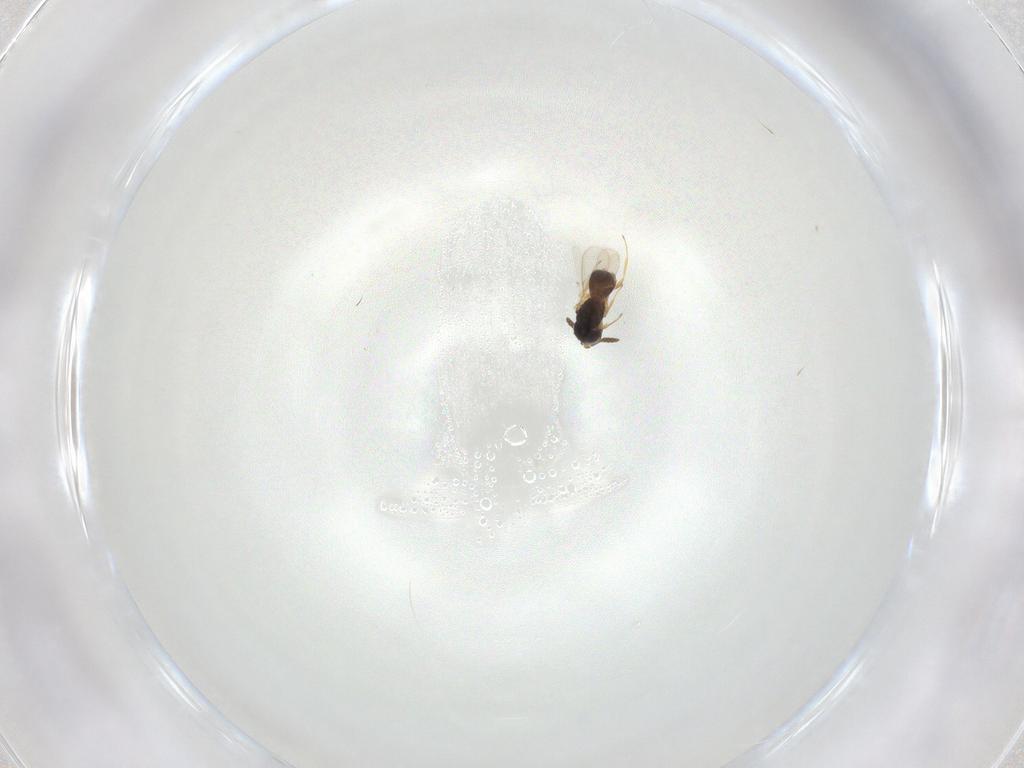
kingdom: Animalia
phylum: Arthropoda
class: Insecta
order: Hymenoptera
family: Scelionidae
